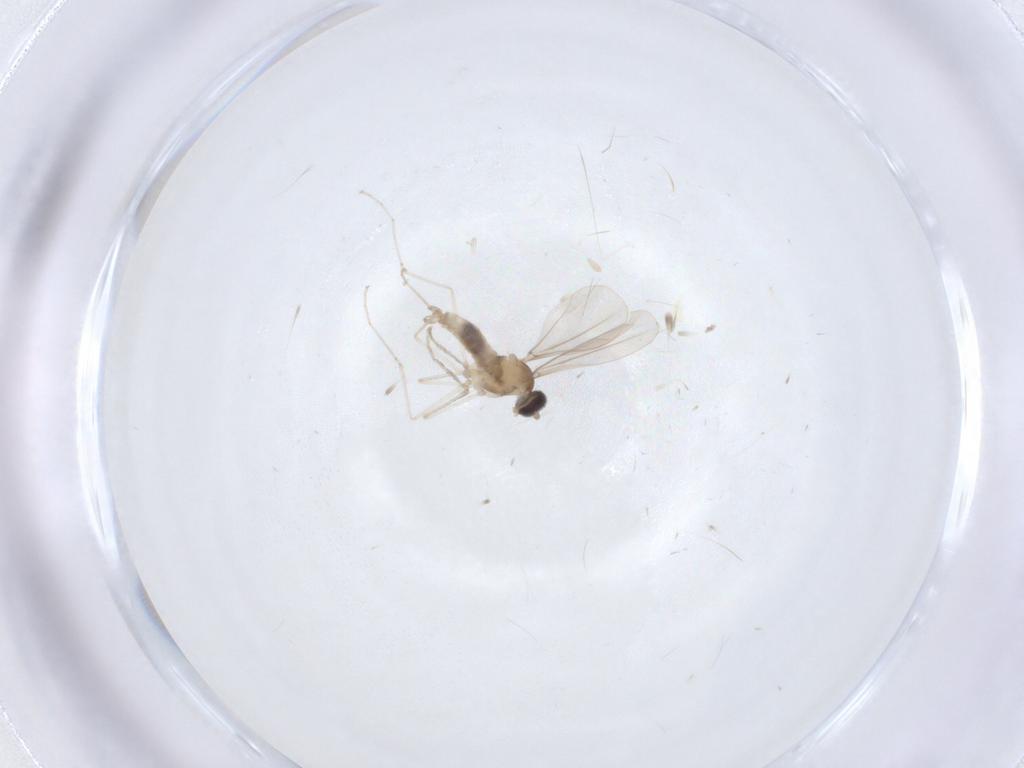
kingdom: Animalia
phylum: Arthropoda
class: Insecta
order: Diptera
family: Cecidomyiidae
